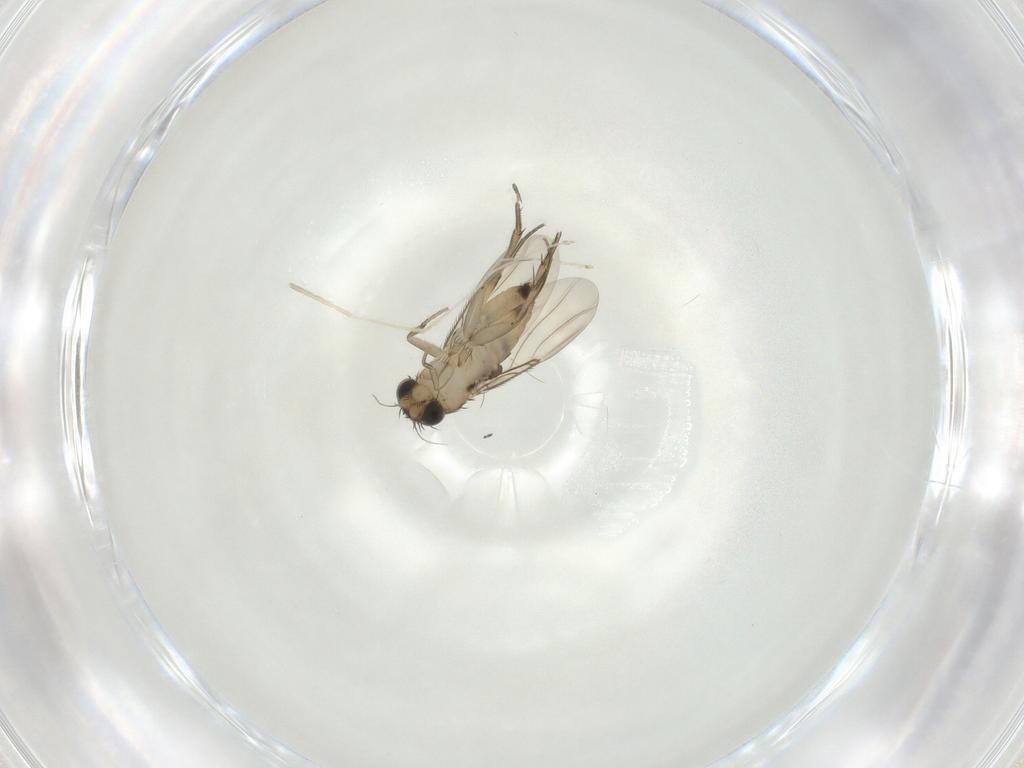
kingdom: Animalia
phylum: Arthropoda
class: Insecta
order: Diptera
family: Phoridae
